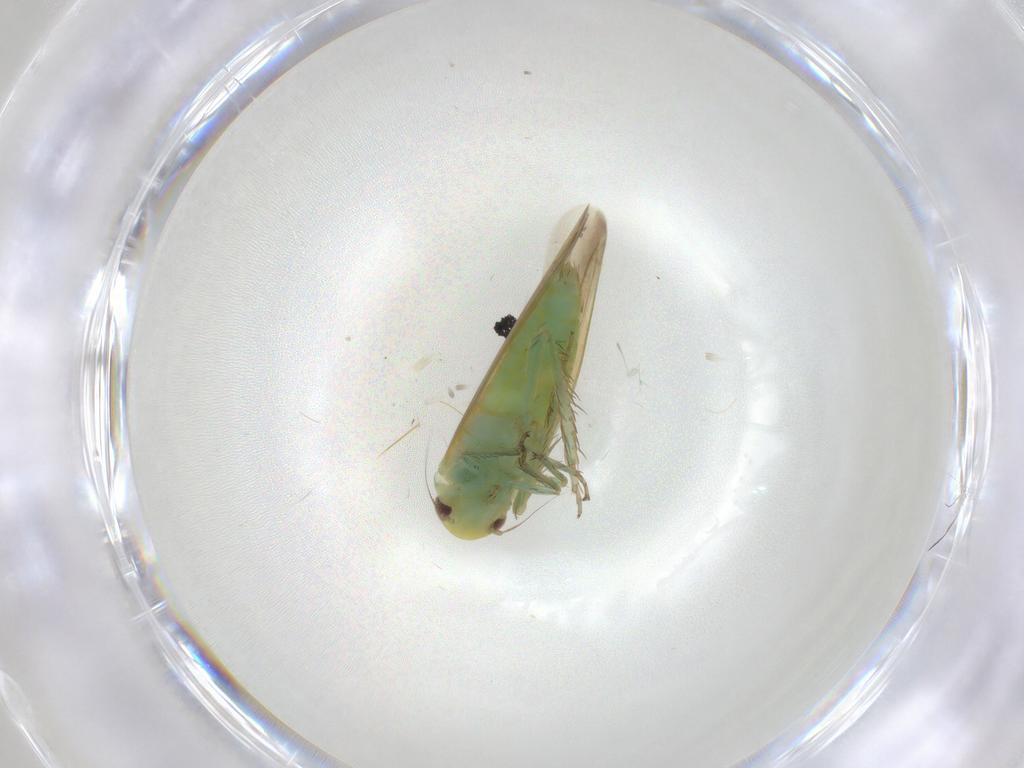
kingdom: Animalia
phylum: Arthropoda
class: Insecta
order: Hemiptera
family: Cicadellidae
